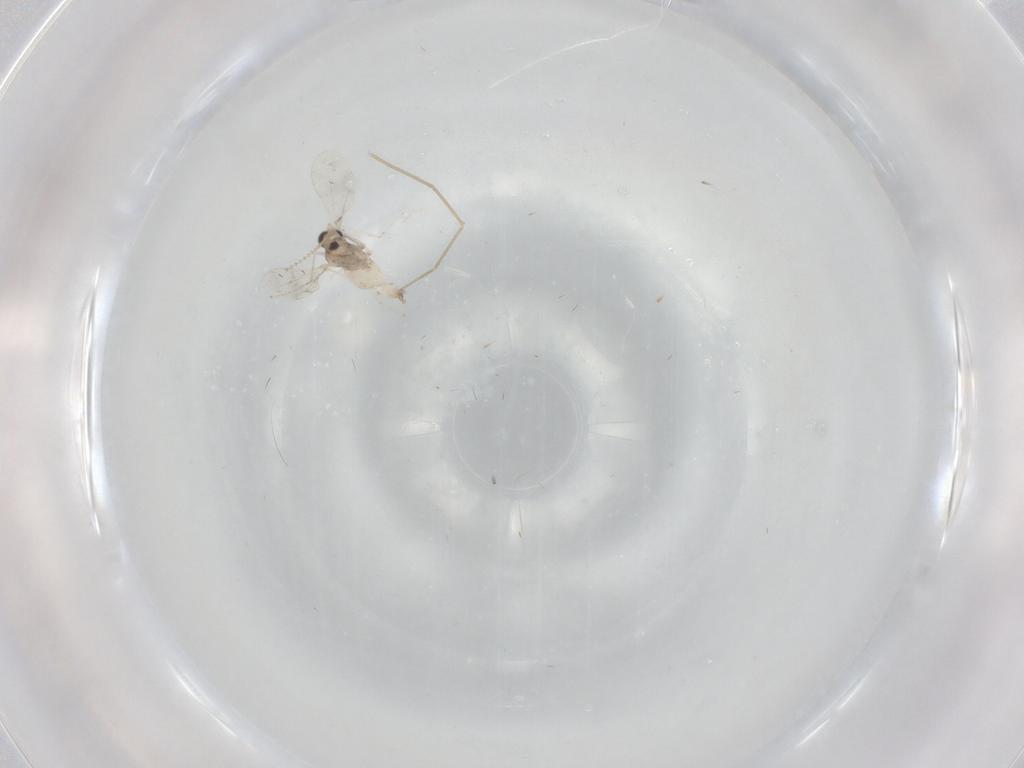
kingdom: Animalia
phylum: Arthropoda
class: Insecta
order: Diptera
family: Cecidomyiidae
